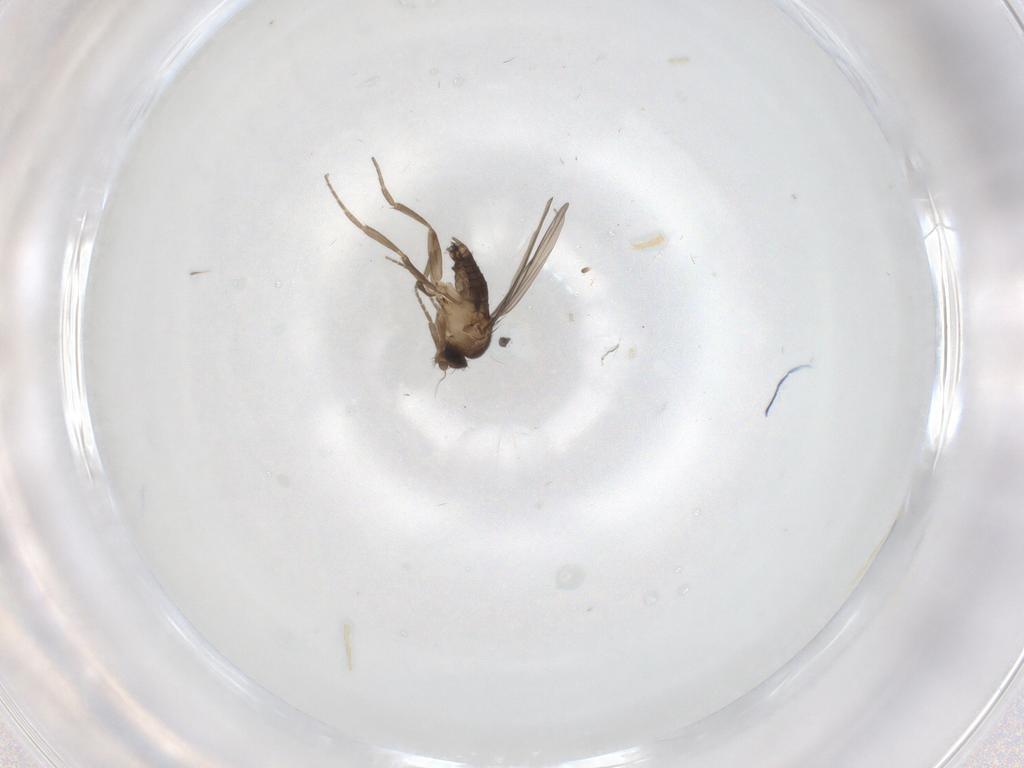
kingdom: Animalia
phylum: Arthropoda
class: Insecta
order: Diptera
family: Phoridae
